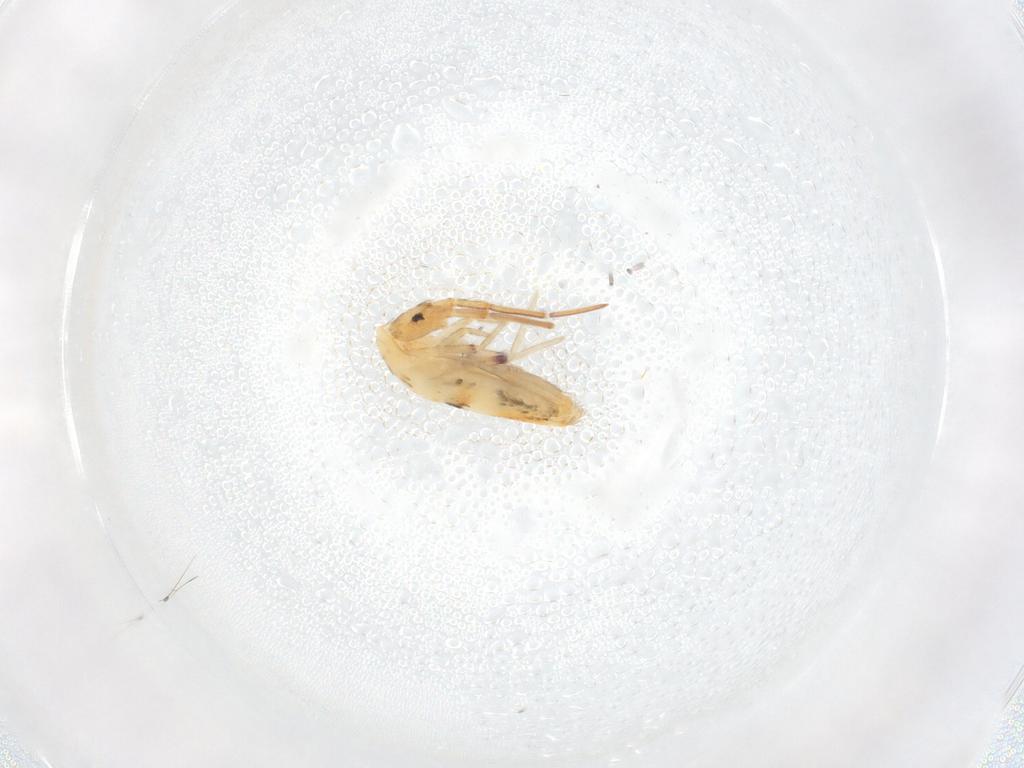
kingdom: Animalia
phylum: Arthropoda
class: Collembola
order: Entomobryomorpha
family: Entomobryidae
